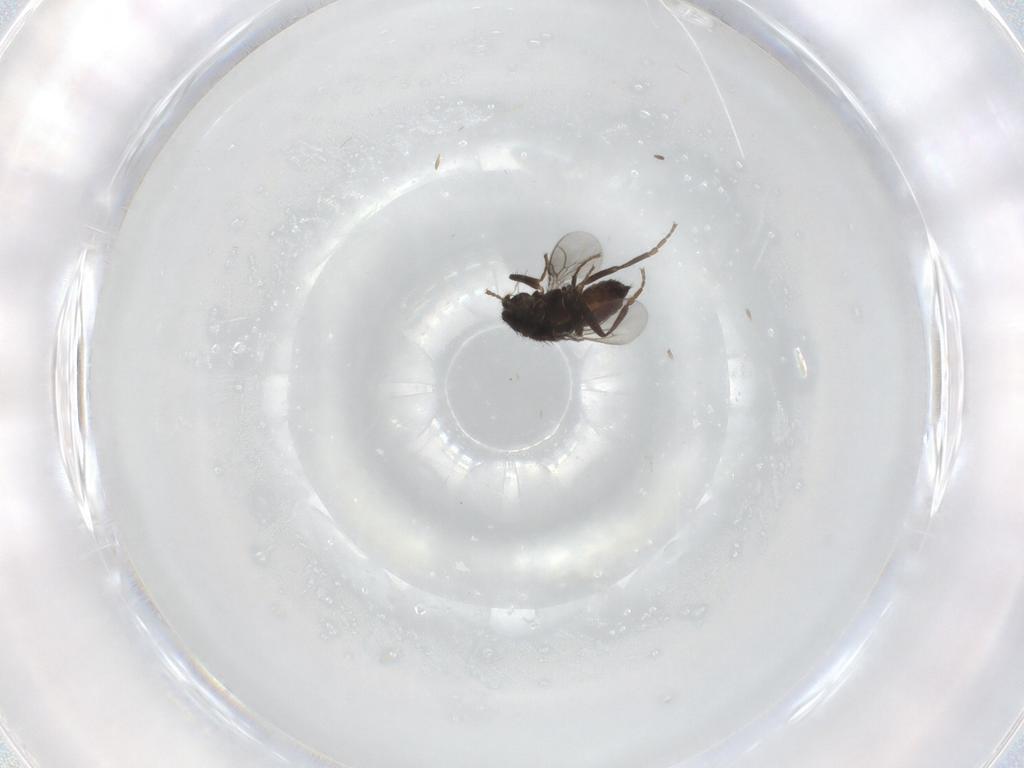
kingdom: Animalia
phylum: Arthropoda
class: Insecta
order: Diptera
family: Sphaeroceridae
